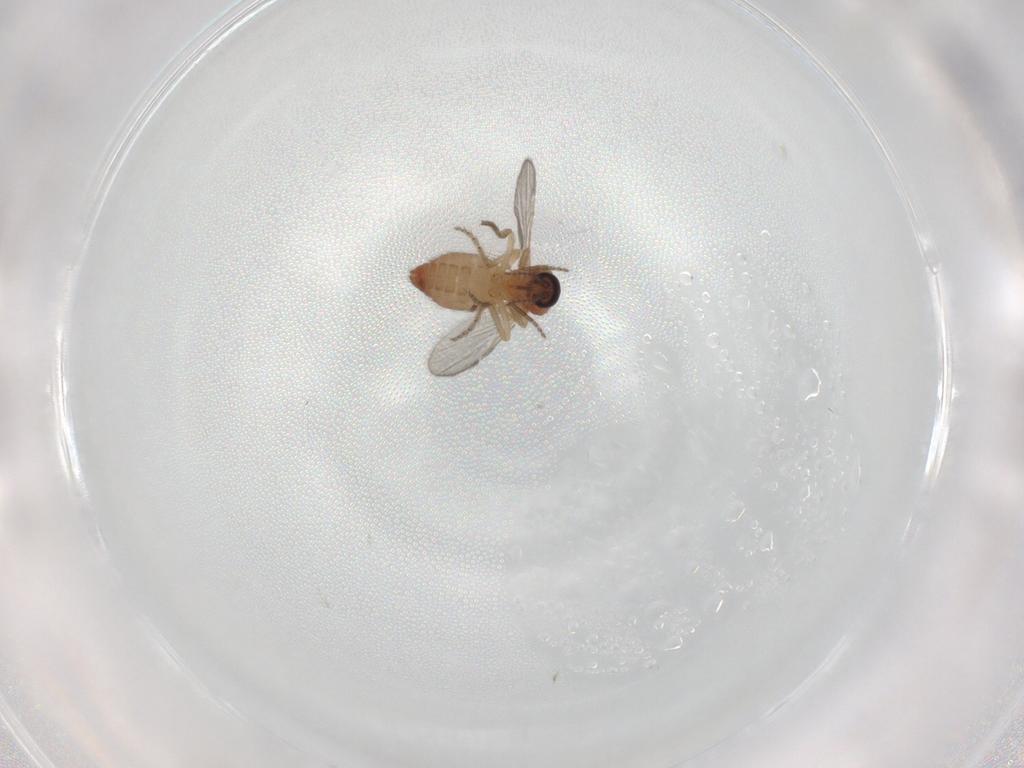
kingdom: Animalia
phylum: Arthropoda
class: Insecta
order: Diptera
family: Ceratopogonidae
